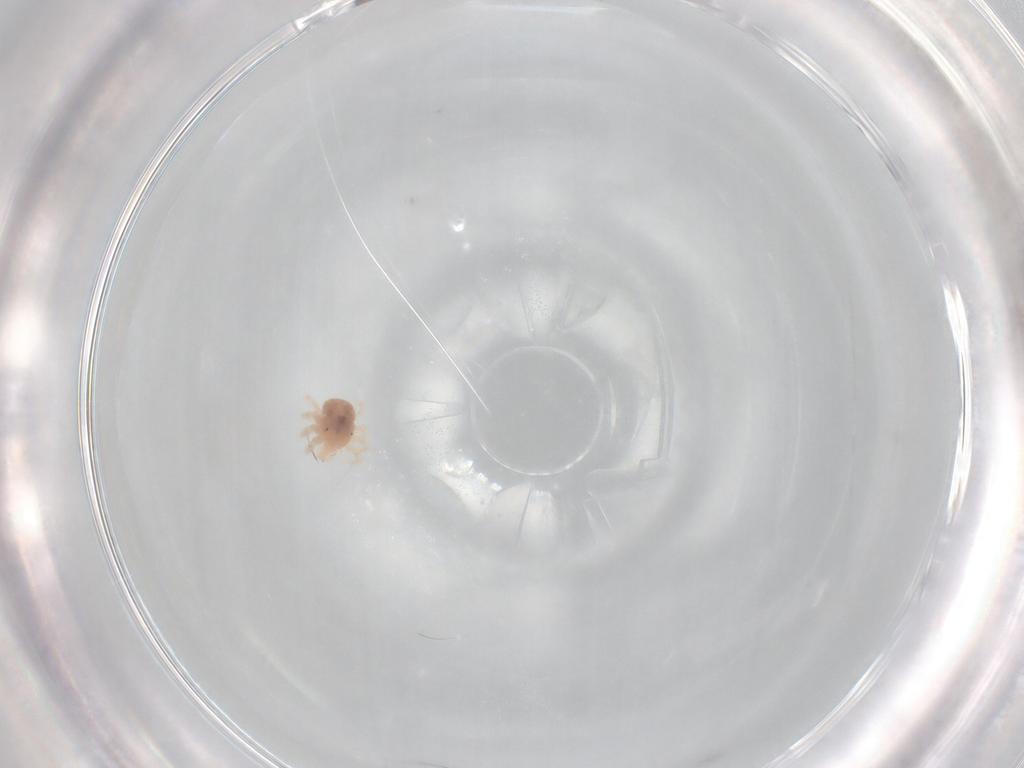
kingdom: Animalia
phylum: Arthropoda
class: Arachnida
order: Trombidiformes
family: Anystidae
